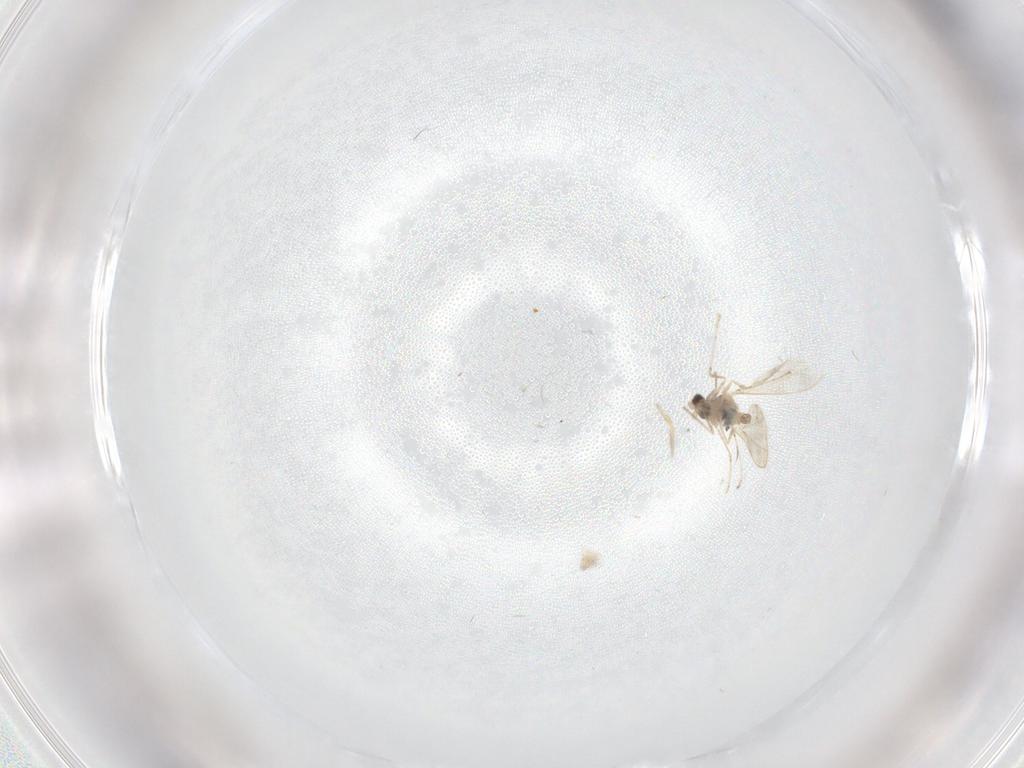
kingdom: Animalia
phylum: Arthropoda
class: Insecta
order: Diptera
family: Cecidomyiidae
